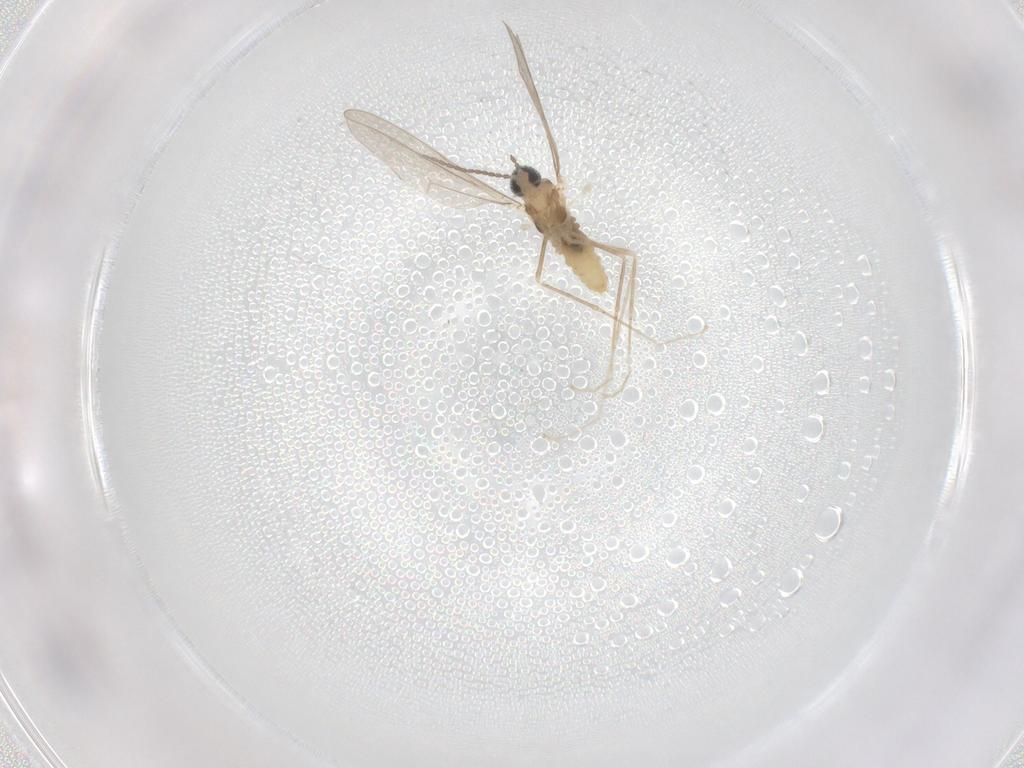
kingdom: Animalia
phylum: Arthropoda
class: Insecta
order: Diptera
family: Cecidomyiidae
